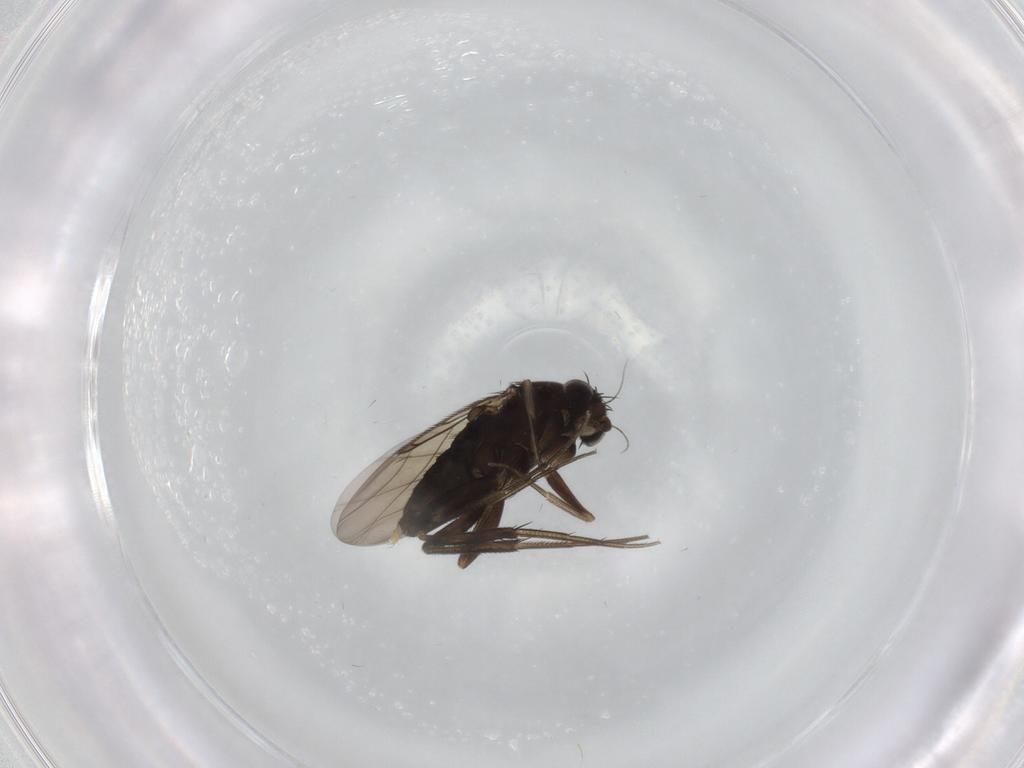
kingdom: Animalia
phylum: Arthropoda
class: Insecta
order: Diptera
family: Phoridae
